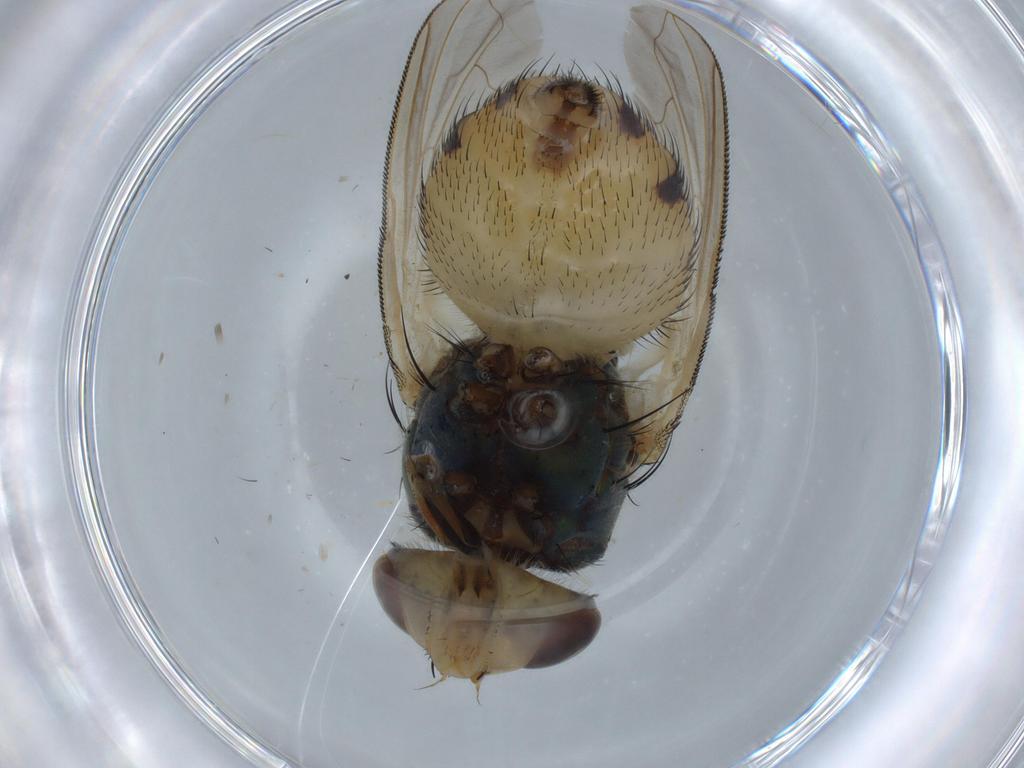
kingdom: Animalia
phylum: Arthropoda
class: Insecta
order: Diptera
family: Calliphoridae
